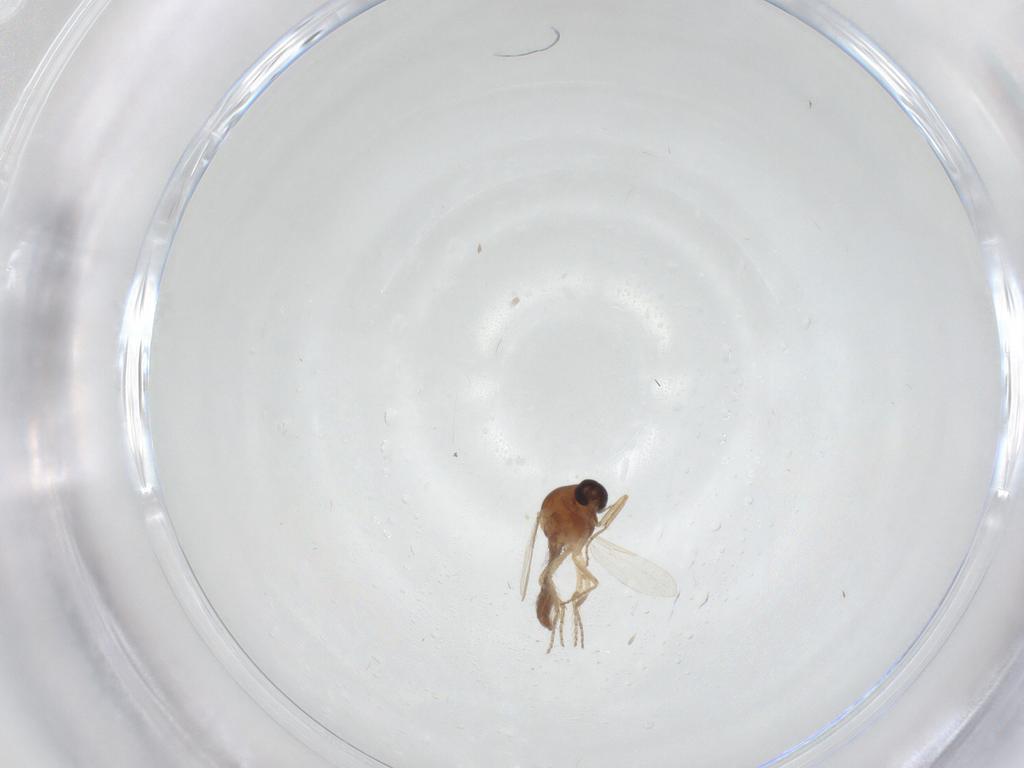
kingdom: Animalia
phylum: Arthropoda
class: Insecta
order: Diptera
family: Ceratopogonidae
